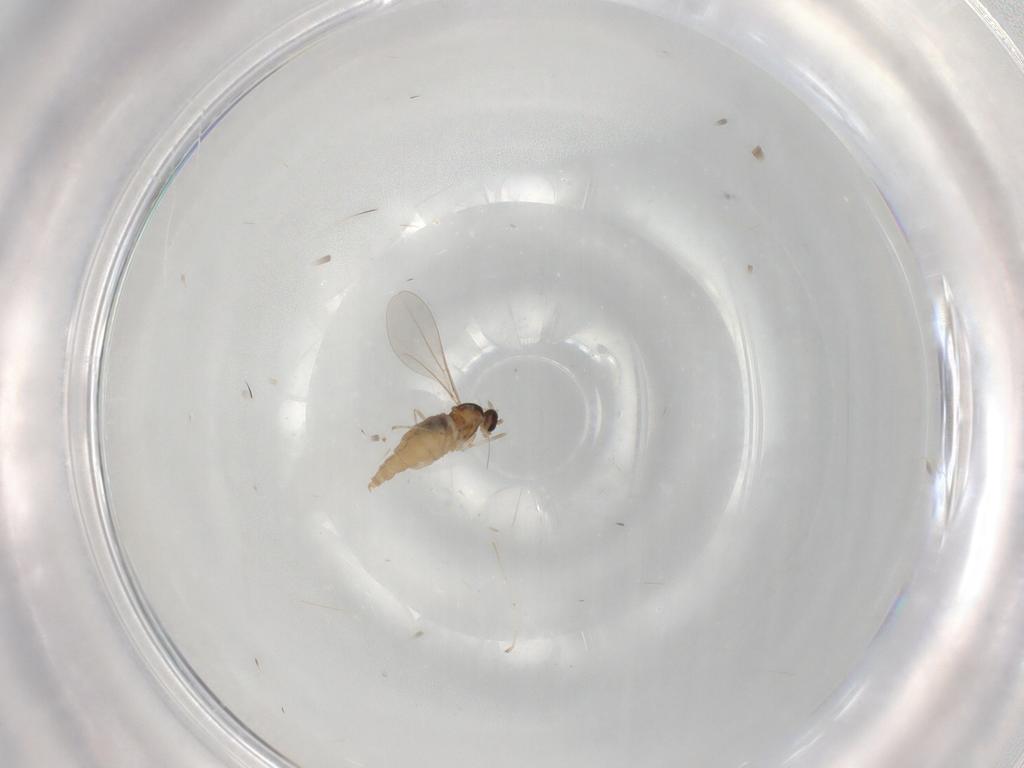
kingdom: Animalia
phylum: Arthropoda
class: Insecta
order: Diptera
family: Cecidomyiidae
